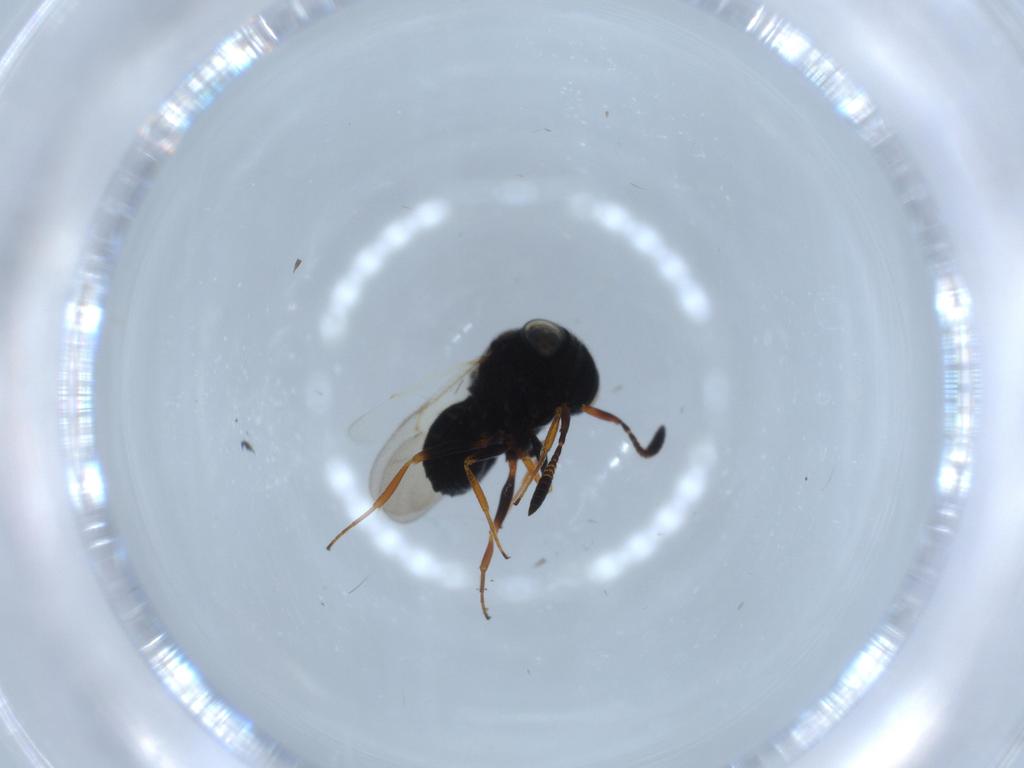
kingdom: Animalia
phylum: Arthropoda
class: Insecta
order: Hymenoptera
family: Scelionidae
